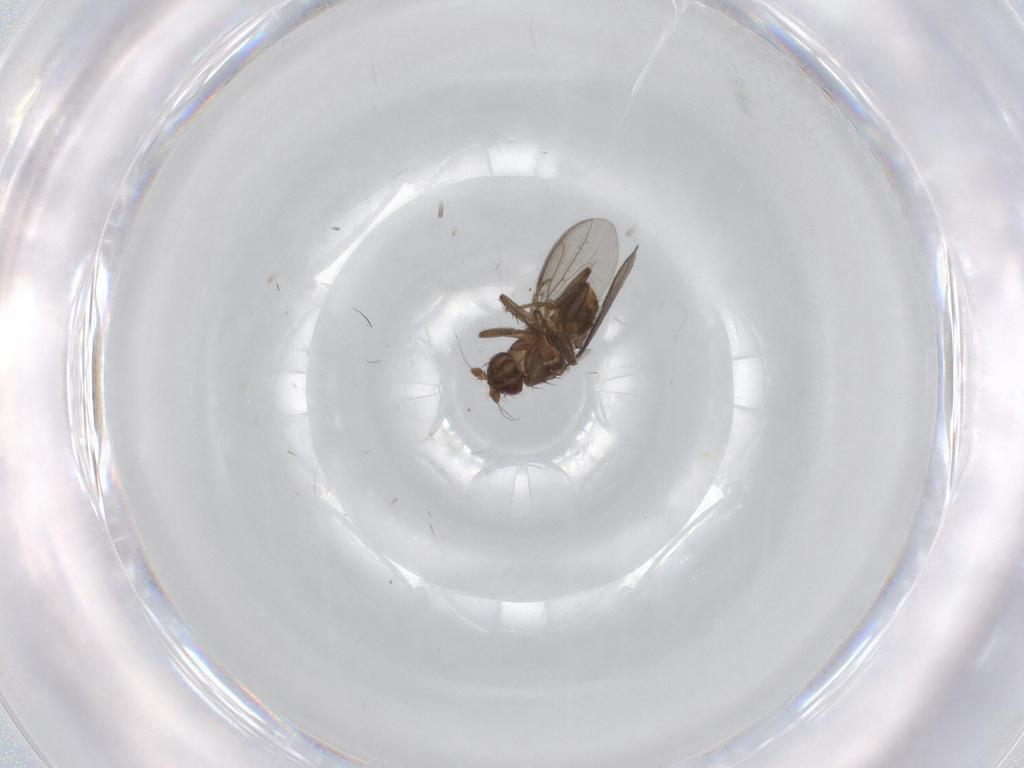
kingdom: Animalia
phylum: Arthropoda
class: Insecta
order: Diptera
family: Sphaeroceridae
